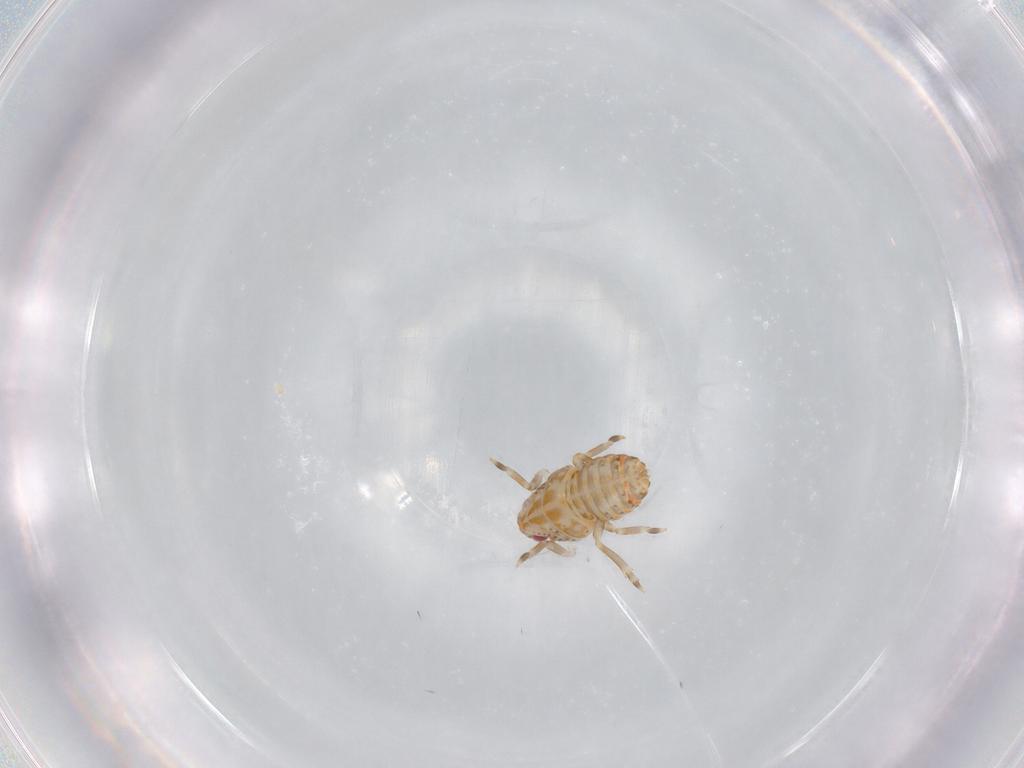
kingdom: Animalia
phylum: Arthropoda
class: Insecta
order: Hemiptera
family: Flatidae
